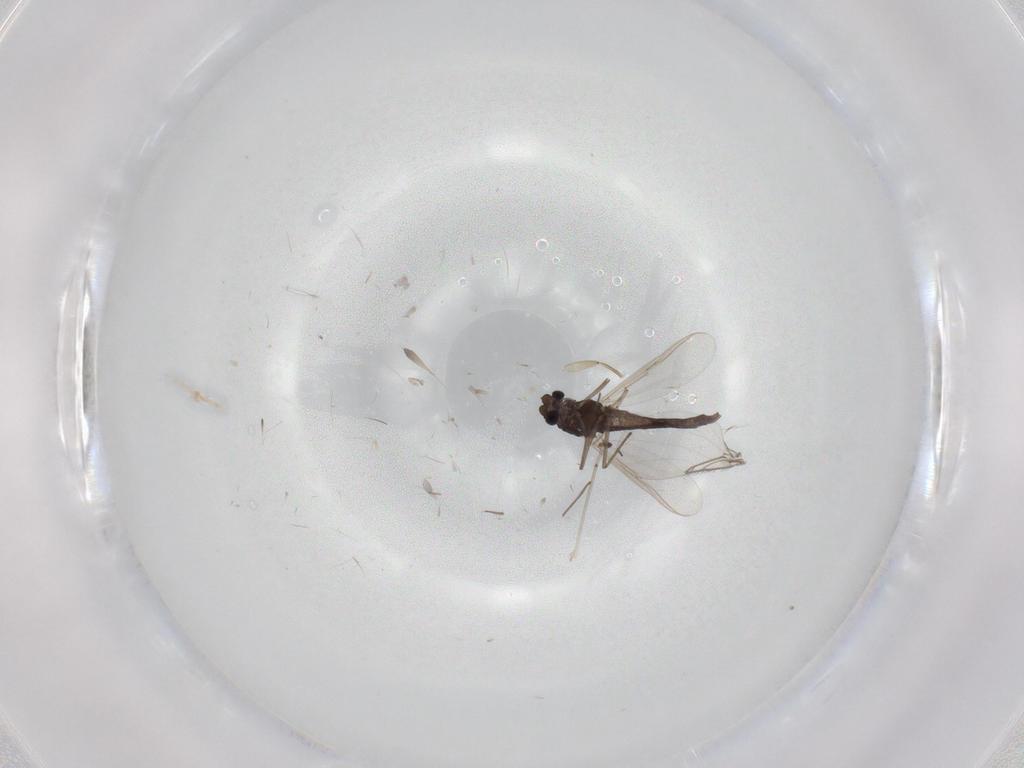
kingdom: Animalia
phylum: Arthropoda
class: Insecta
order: Diptera
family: Chironomidae
